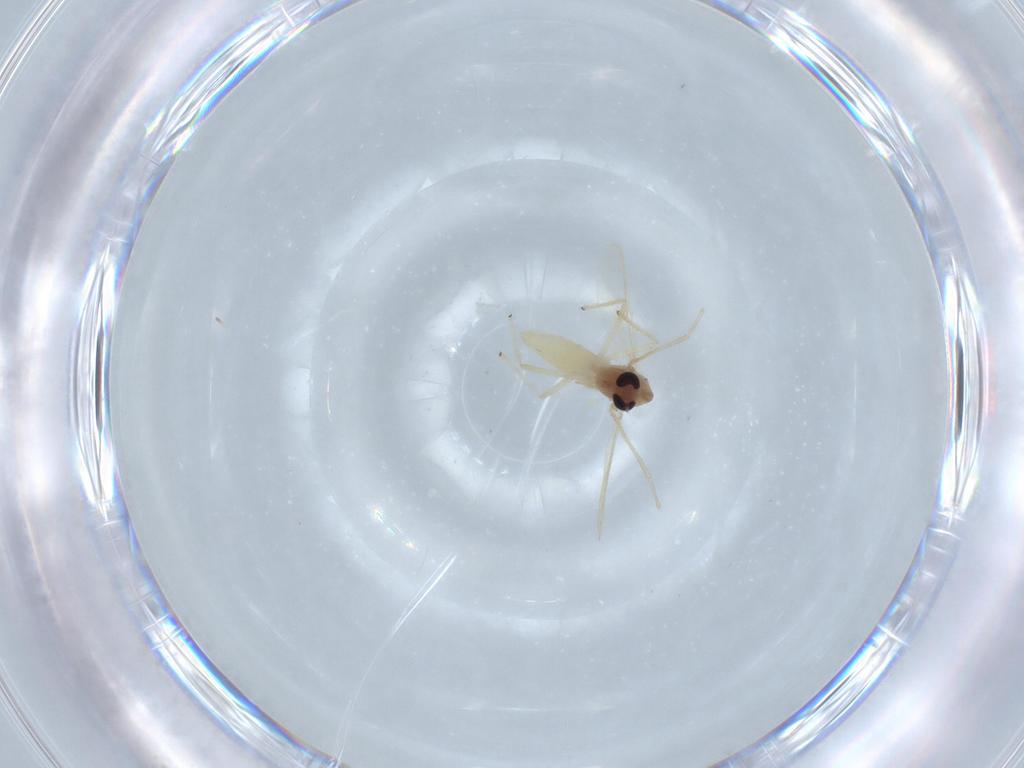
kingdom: Animalia
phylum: Arthropoda
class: Insecta
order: Diptera
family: Chironomidae
